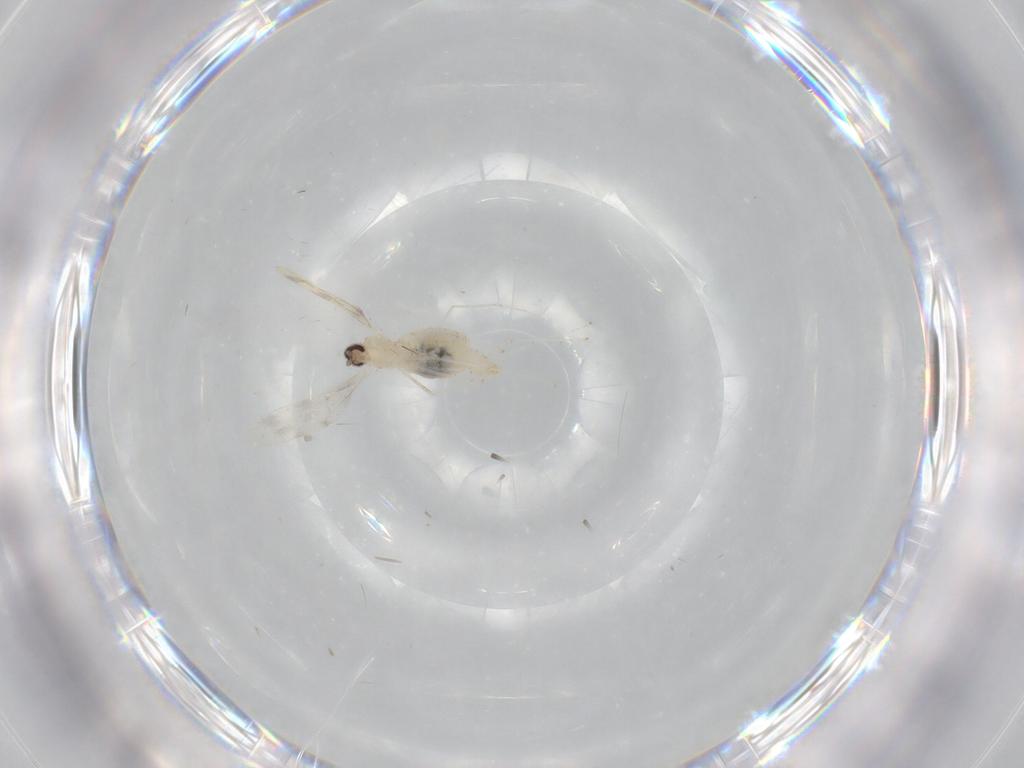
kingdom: Animalia
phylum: Arthropoda
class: Insecta
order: Diptera
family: Cecidomyiidae
